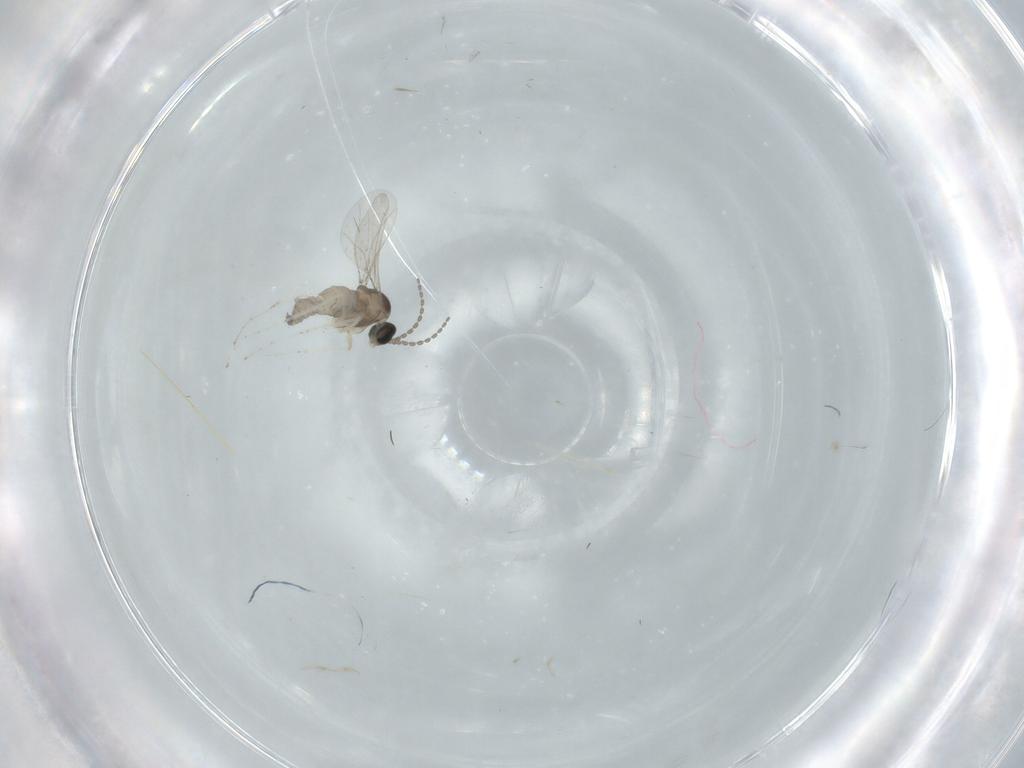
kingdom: Animalia
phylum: Arthropoda
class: Insecta
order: Diptera
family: Cecidomyiidae
